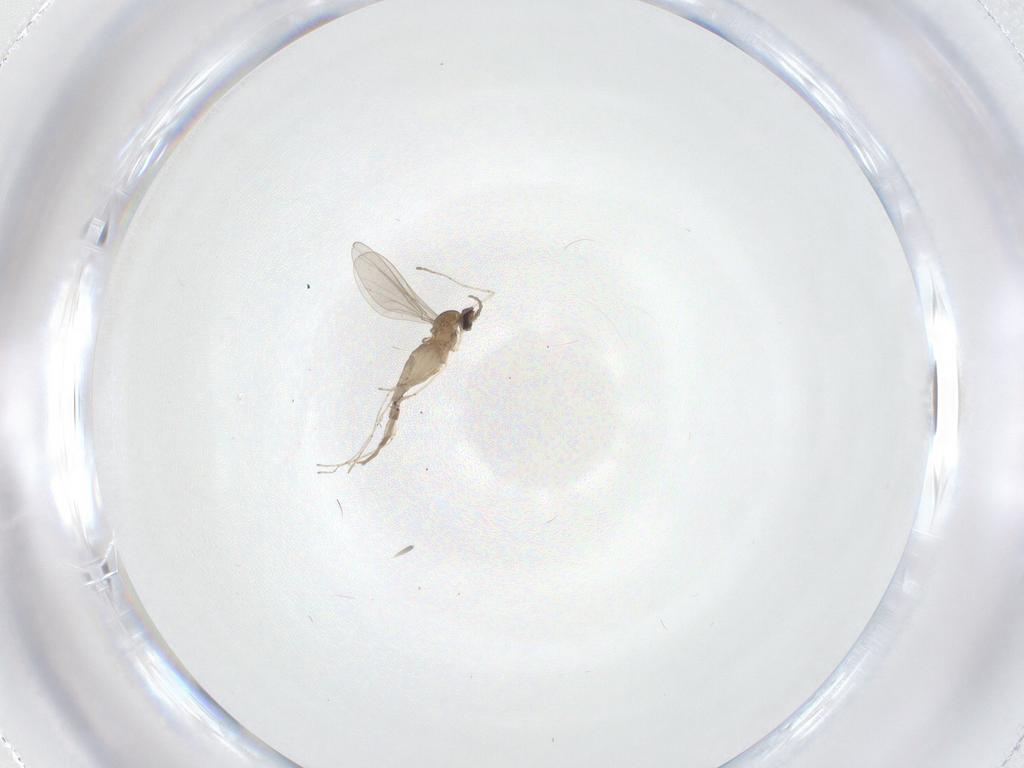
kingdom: Animalia
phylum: Arthropoda
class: Insecta
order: Diptera
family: Cecidomyiidae
